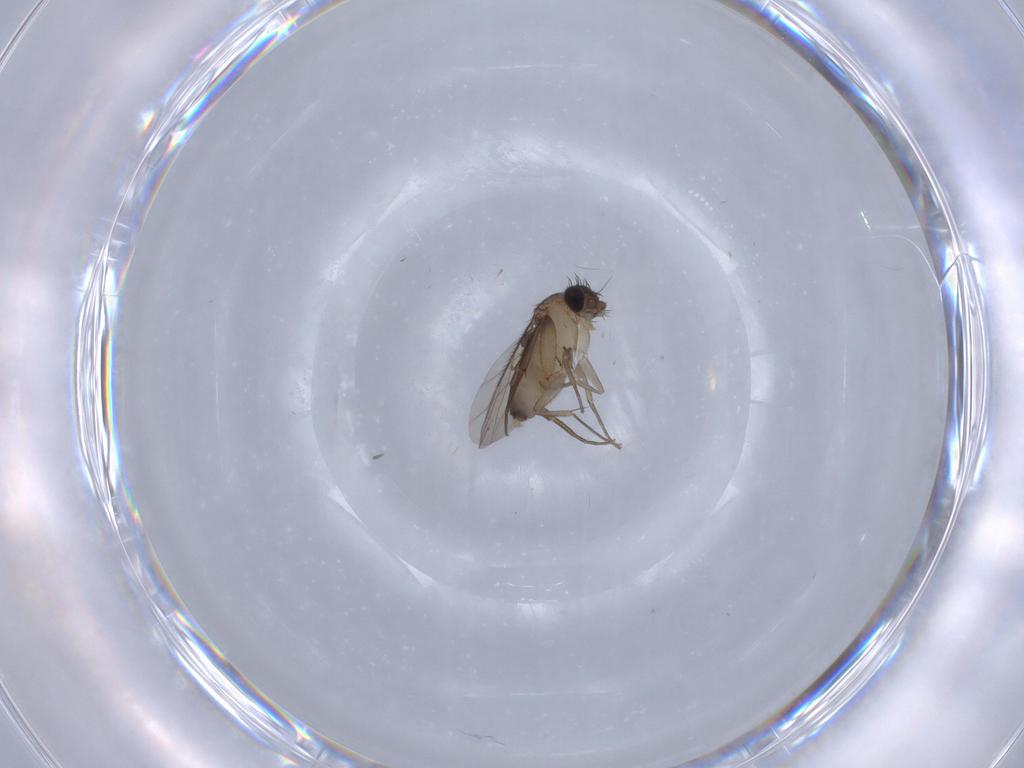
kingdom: Animalia
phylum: Arthropoda
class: Insecta
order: Diptera
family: Phoridae
